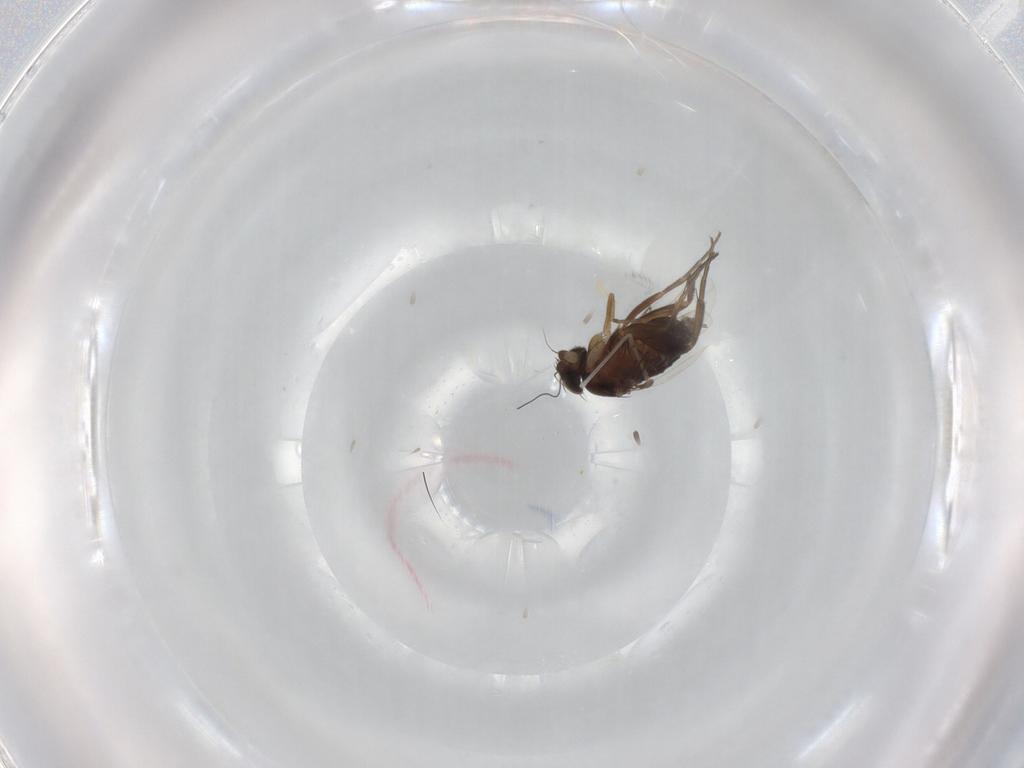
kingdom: Animalia
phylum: Arthropoda
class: Insecta
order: Diptera
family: Cecidomyiidae
